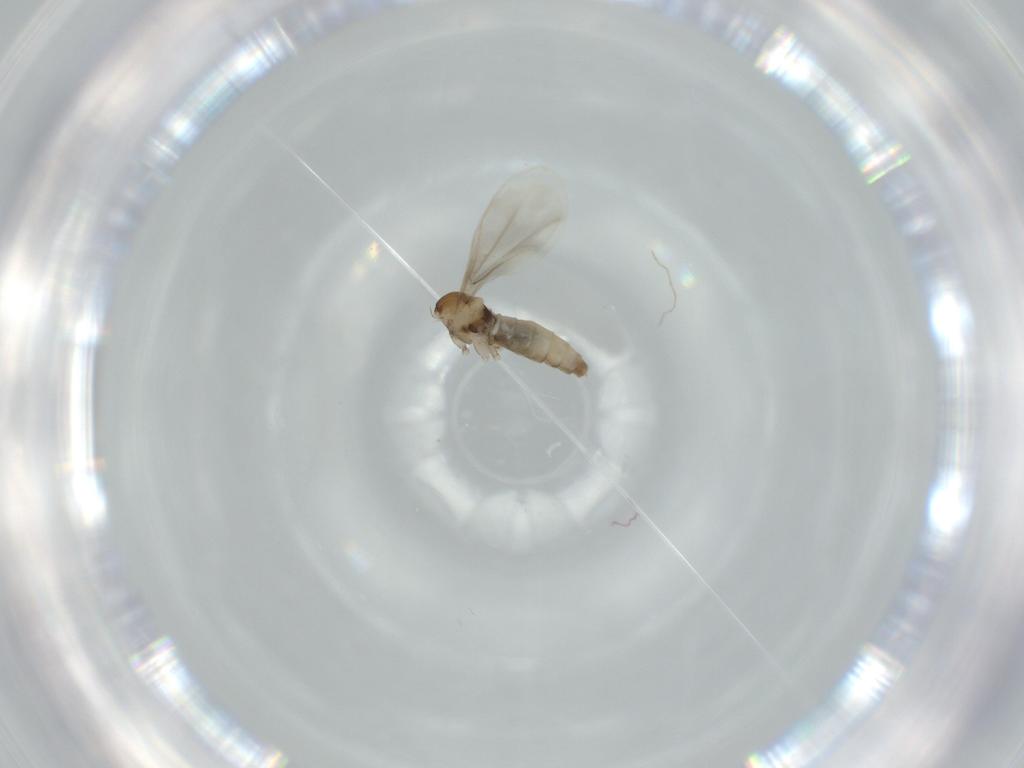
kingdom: Animalia
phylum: Arthropoda
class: Insecta
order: Diptera
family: Cecidomyiidae
